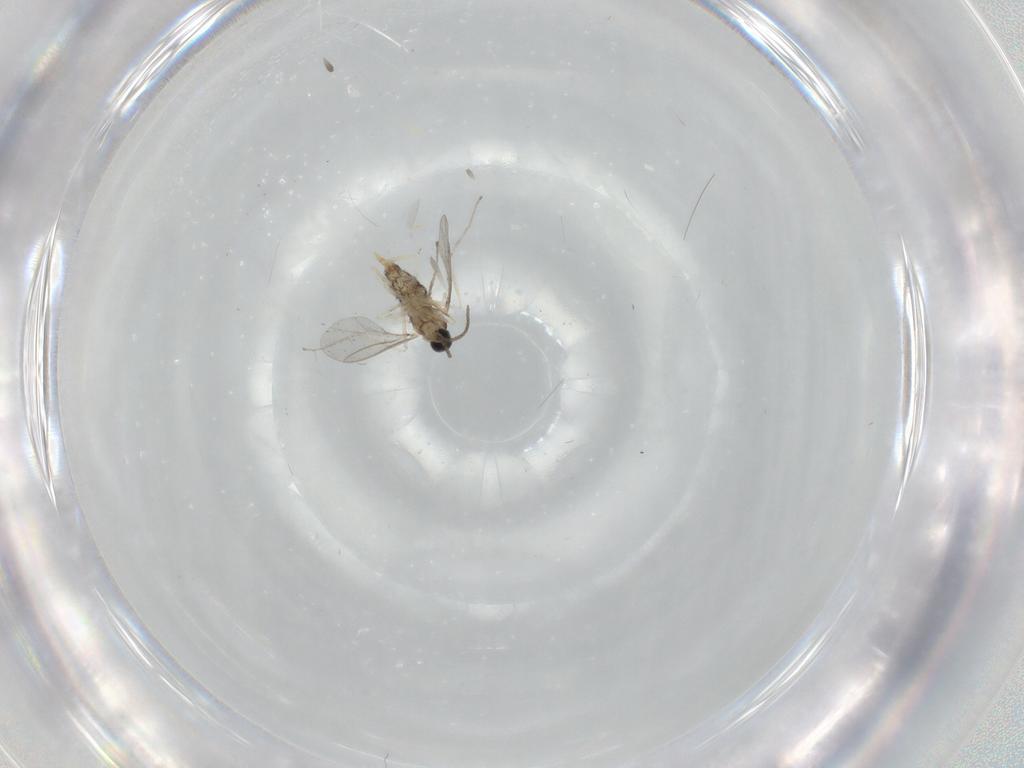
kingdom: Animalia
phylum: Arthropoda
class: Insecta
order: Diptera
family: Cecidomyiidae
